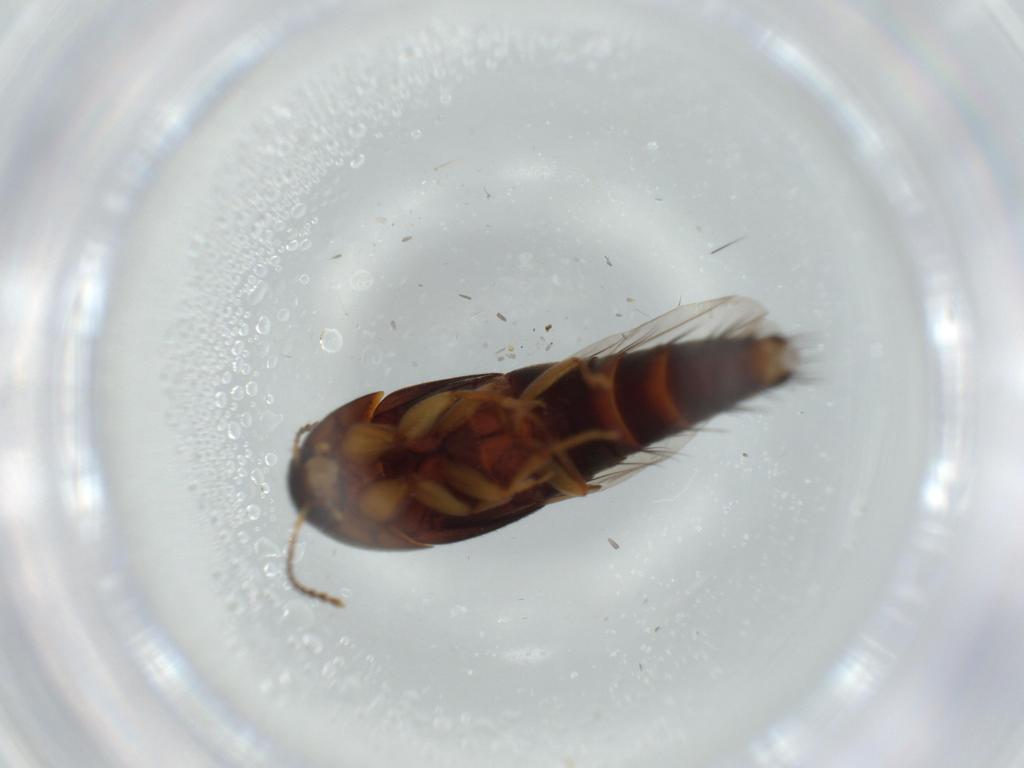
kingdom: Animalia
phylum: Arthropoda
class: Insecta
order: Coleoptera
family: Staphylinidae
